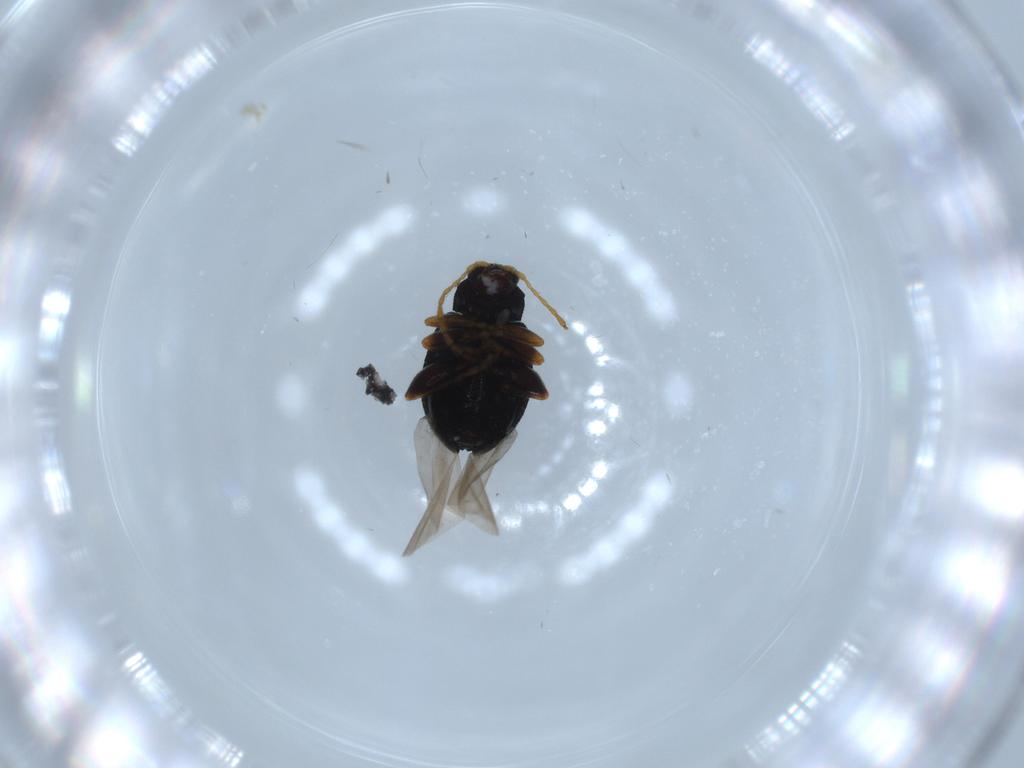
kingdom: Animalia
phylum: Arthropoda
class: Insecta
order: Coleoptera
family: Chrysomelidae
